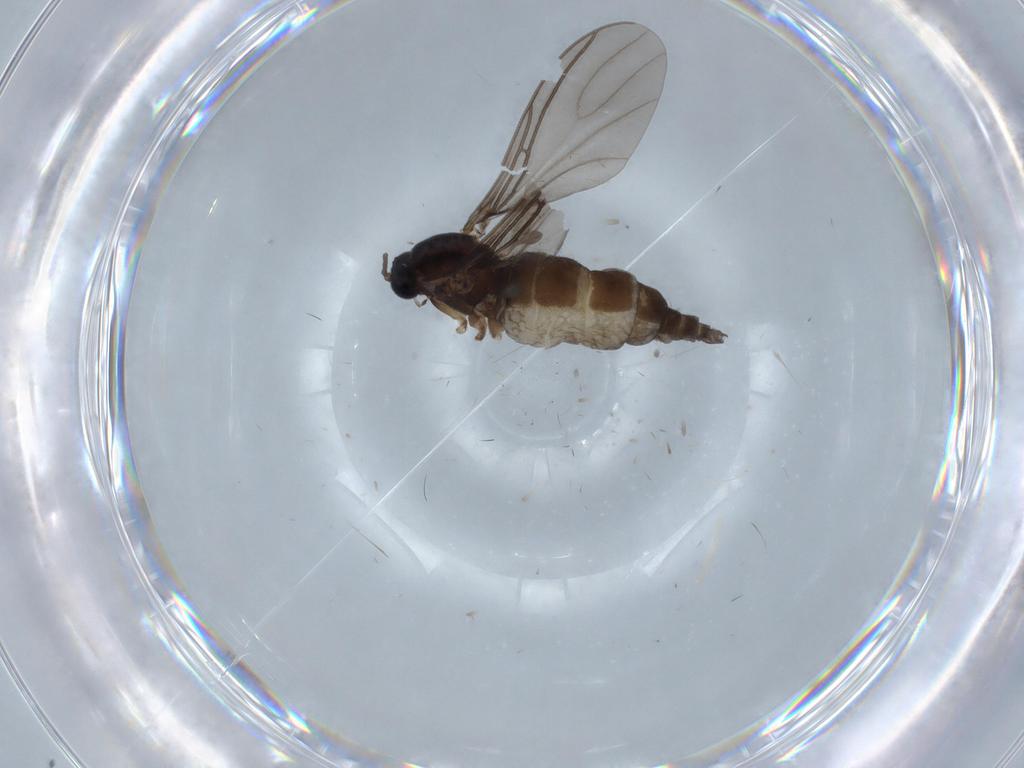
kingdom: Animalia
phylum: Arthropoda
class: Insecta
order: Diptera
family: Sciaridae
